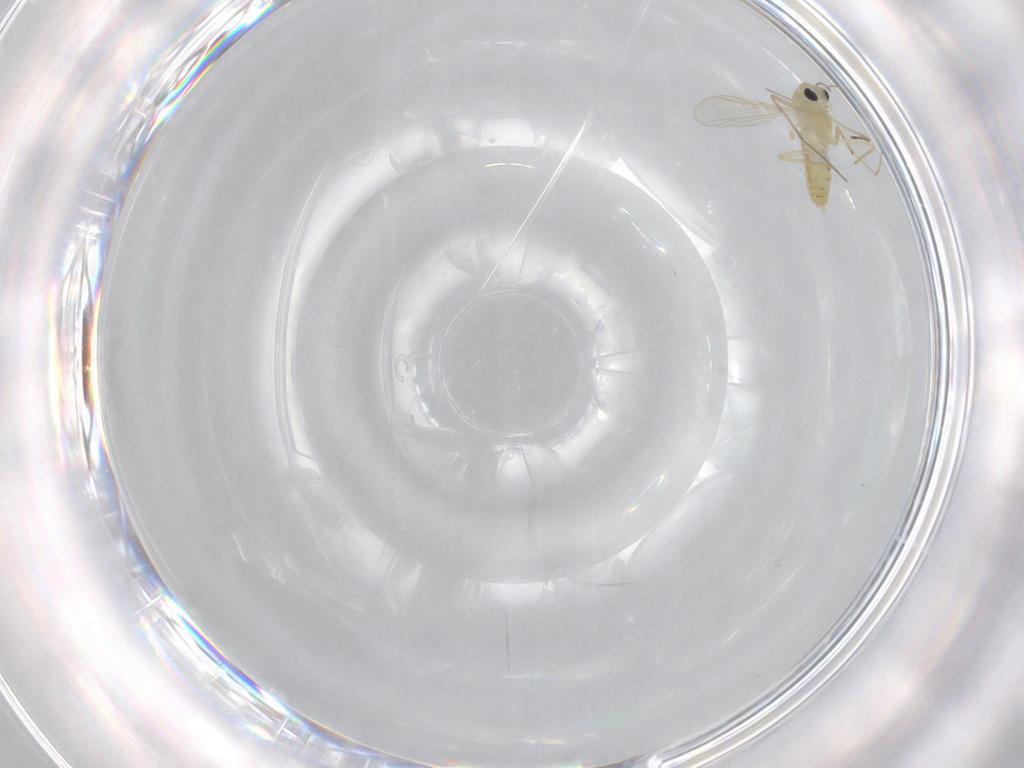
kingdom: Animalia
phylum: Arthropoda
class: Insecta
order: Diptera
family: Chironomidae
